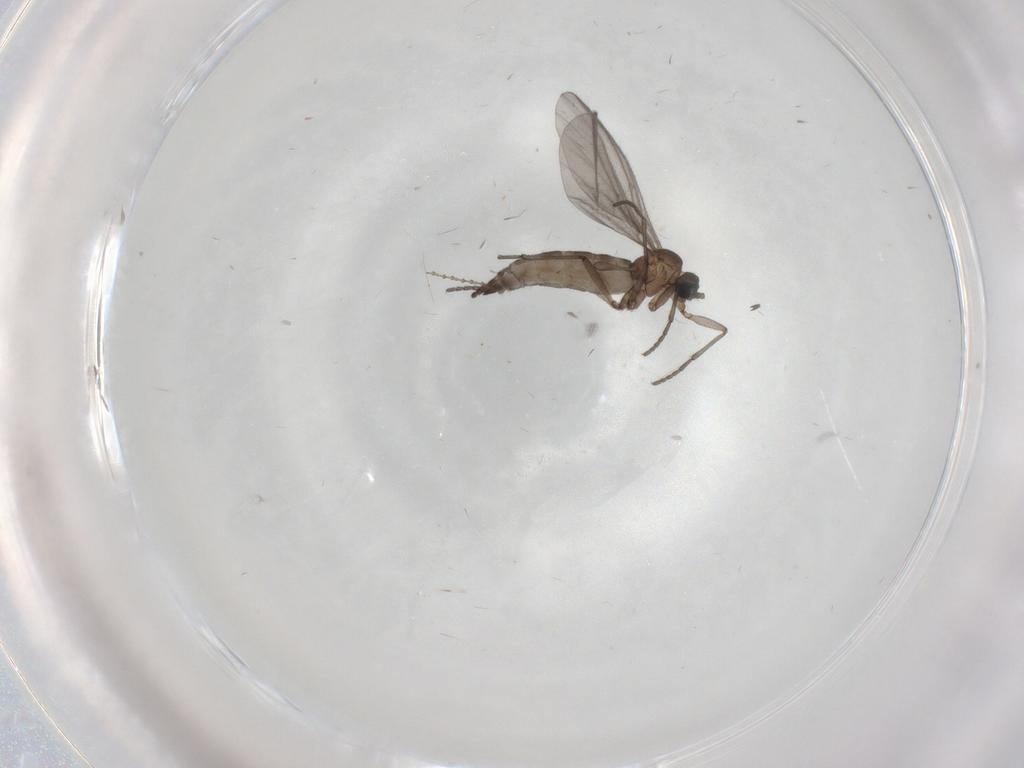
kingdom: Animalia
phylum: Arthropoda
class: Insecta
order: Diptera
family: Sciaridae
